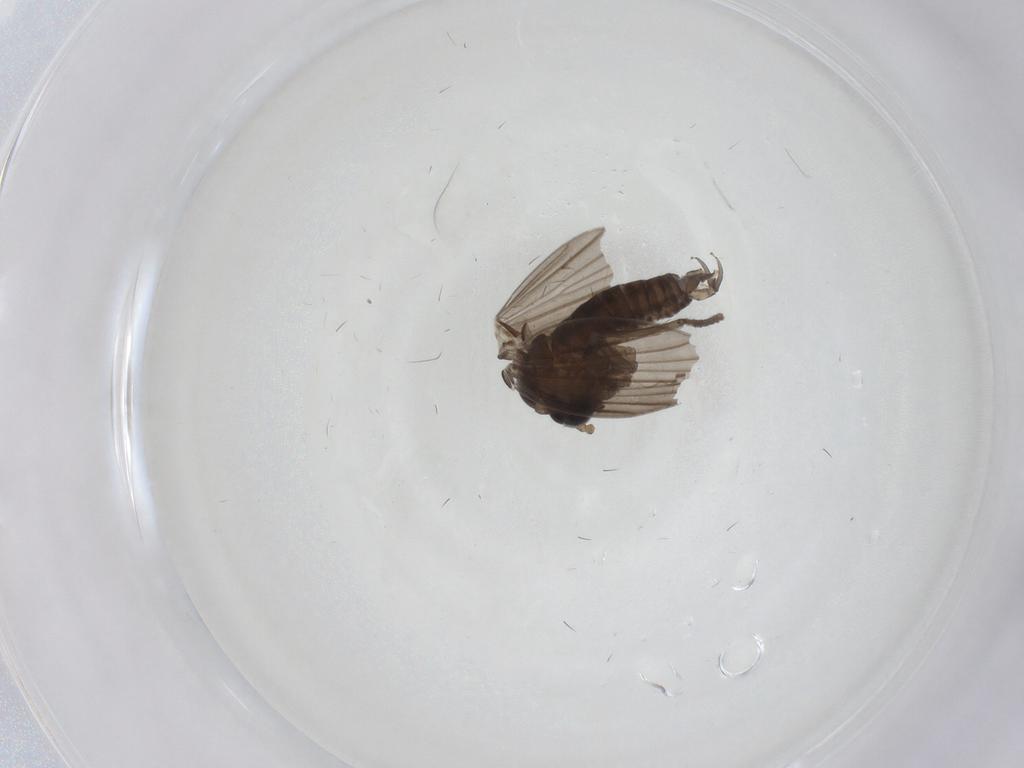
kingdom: Animalia
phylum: Arthropoda
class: Insecta
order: Diptera
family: Psychodidae
